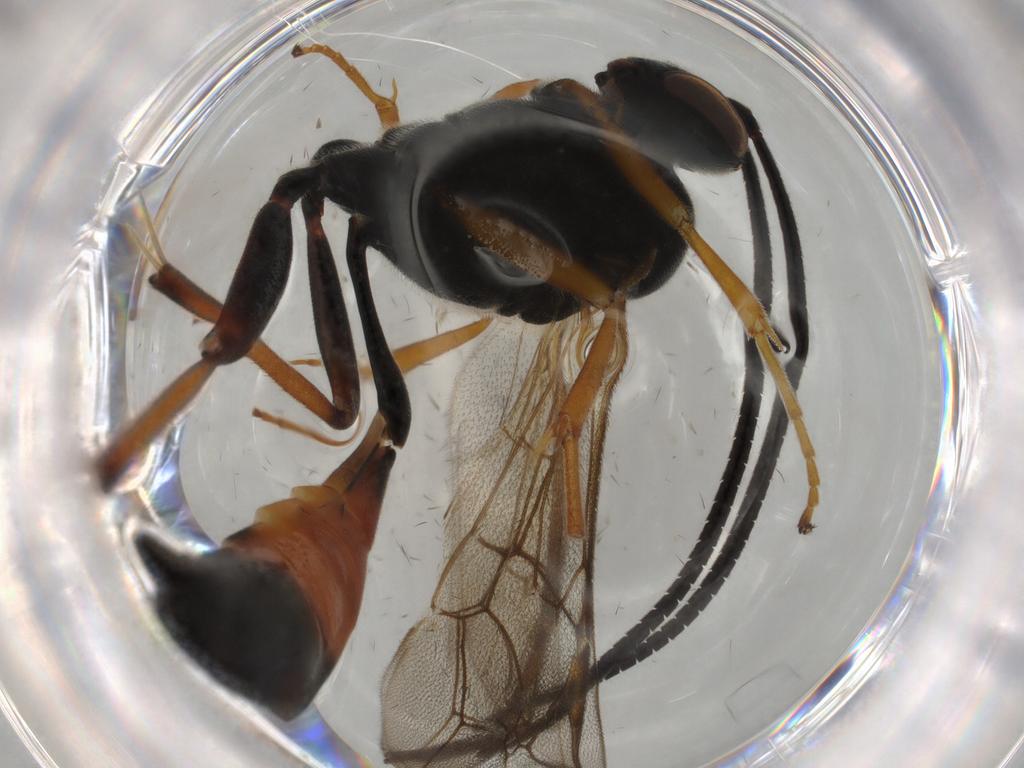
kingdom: Animalia
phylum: Arthropoda
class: Insecta
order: Hymenoptera
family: Ichneumonidae
